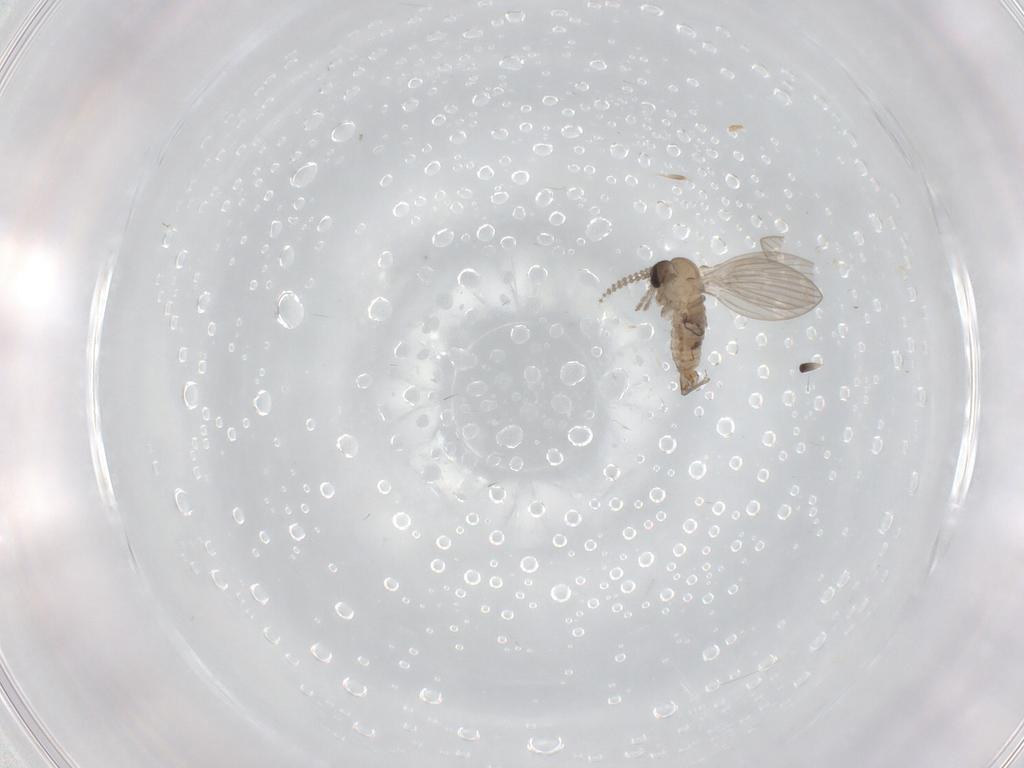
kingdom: Animalia
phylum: Arthropoda
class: Insecta
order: Diptera
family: Psychodidae
